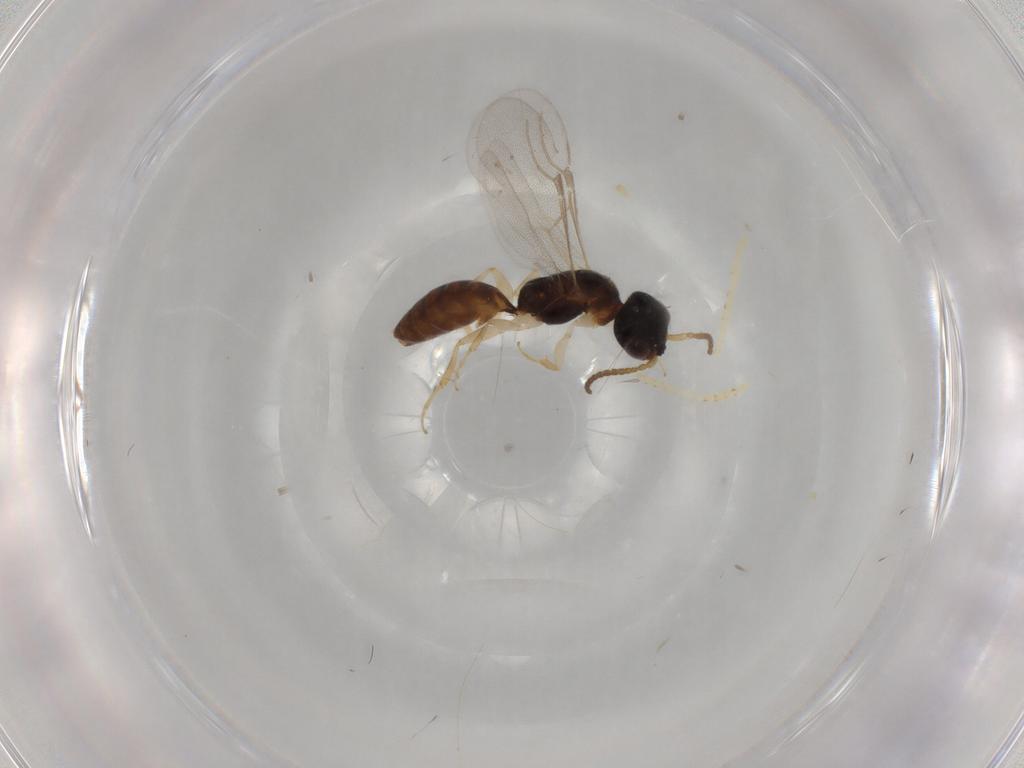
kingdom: Animalia
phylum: Arthropoda
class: Insecta
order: Hymenoptera
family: Bethylidae
